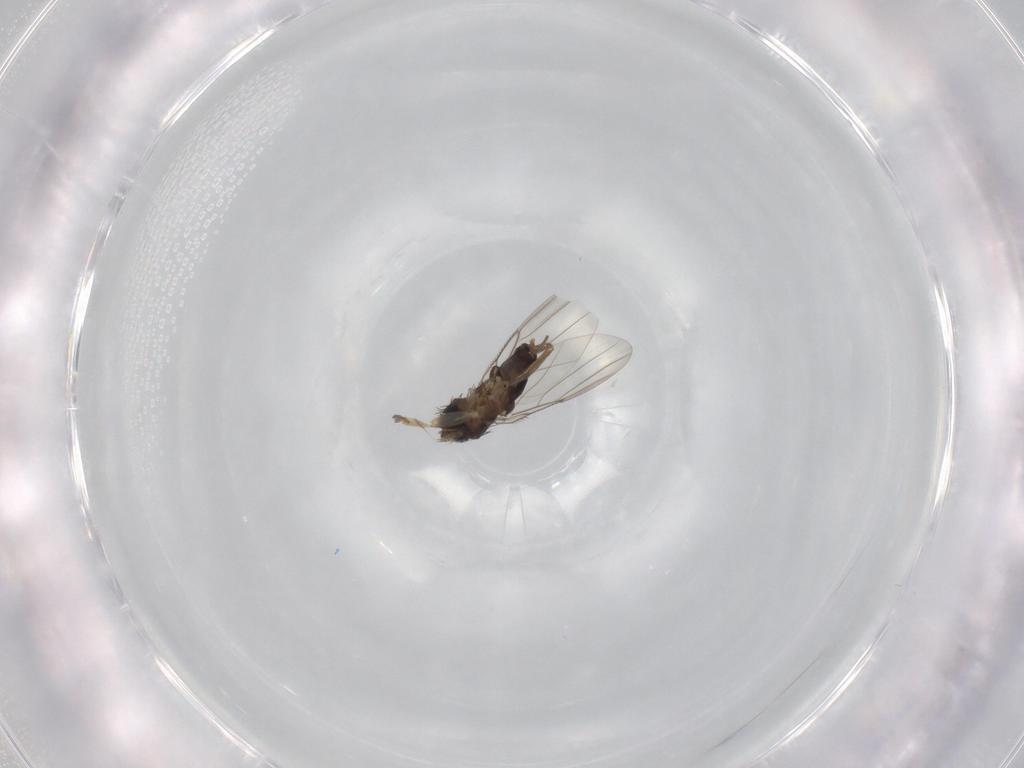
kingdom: Animalia
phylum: Arthropoda
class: Insecta
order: Diptera
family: Phoridae
